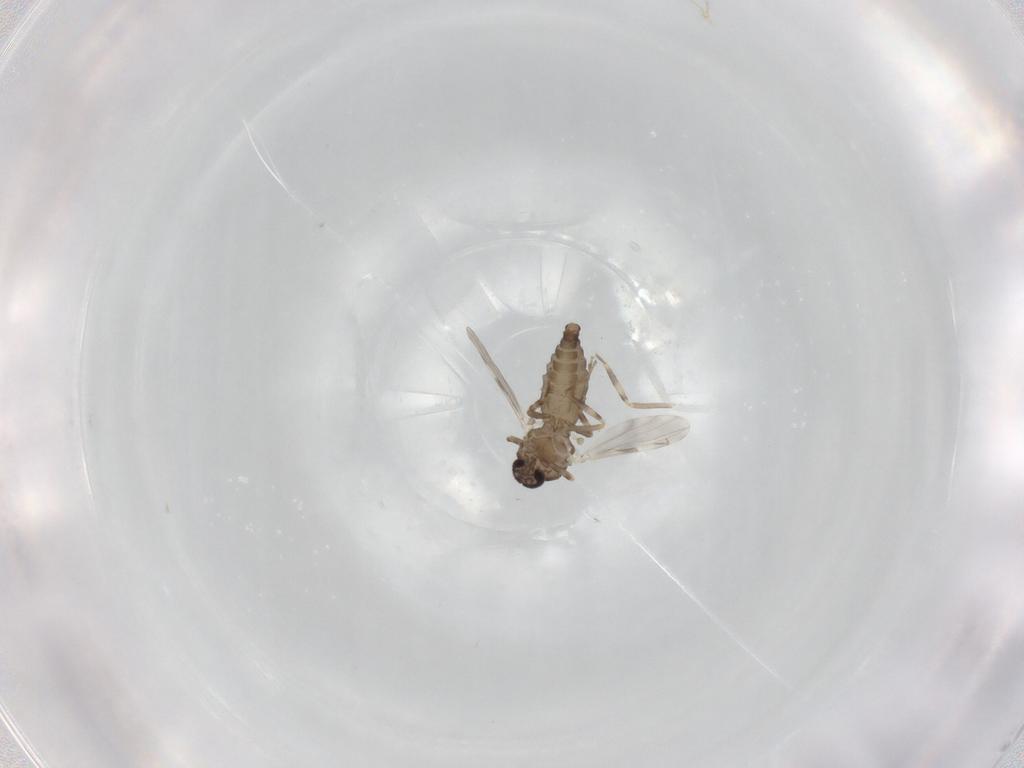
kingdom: Animalia
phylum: Arthropoda
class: Insecta
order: Diptera
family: Ceratopogonidae
